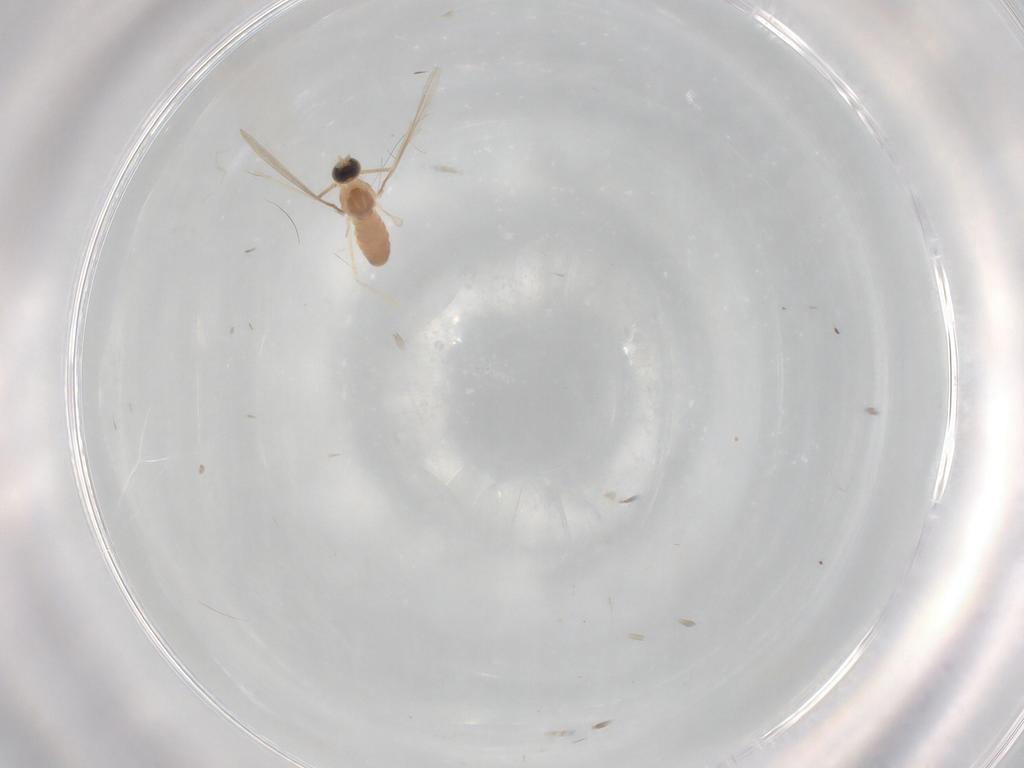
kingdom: Animalia
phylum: Arthropoda
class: Insecta
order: Diptera
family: Cecidomyiidae
